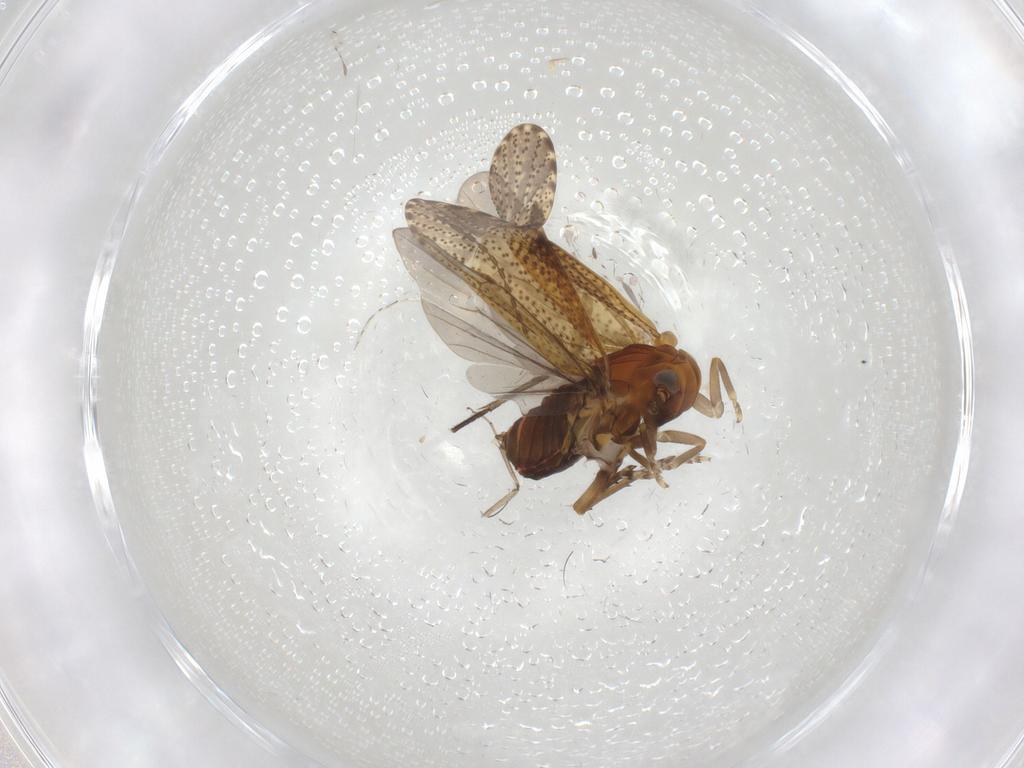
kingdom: Animalia
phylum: Arthropoda
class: Insecta
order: Hemiptera
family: Delphacidae
